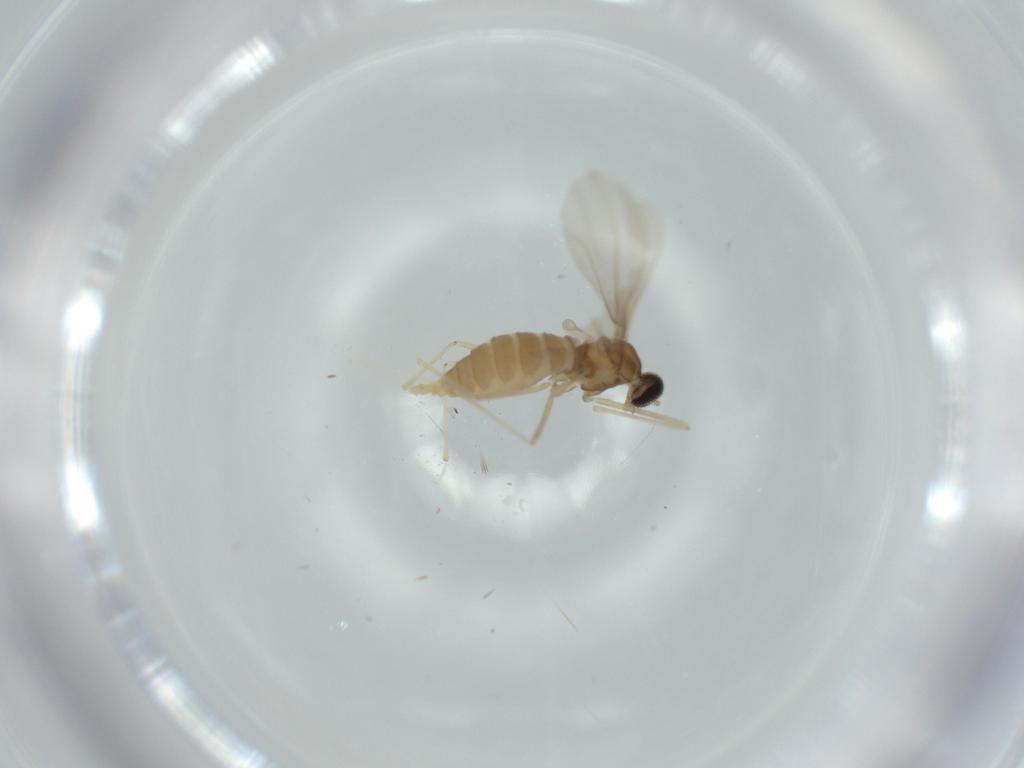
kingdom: Animalia
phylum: Arthropoda
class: Insecta
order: Diptera
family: Cecidomyiidae
